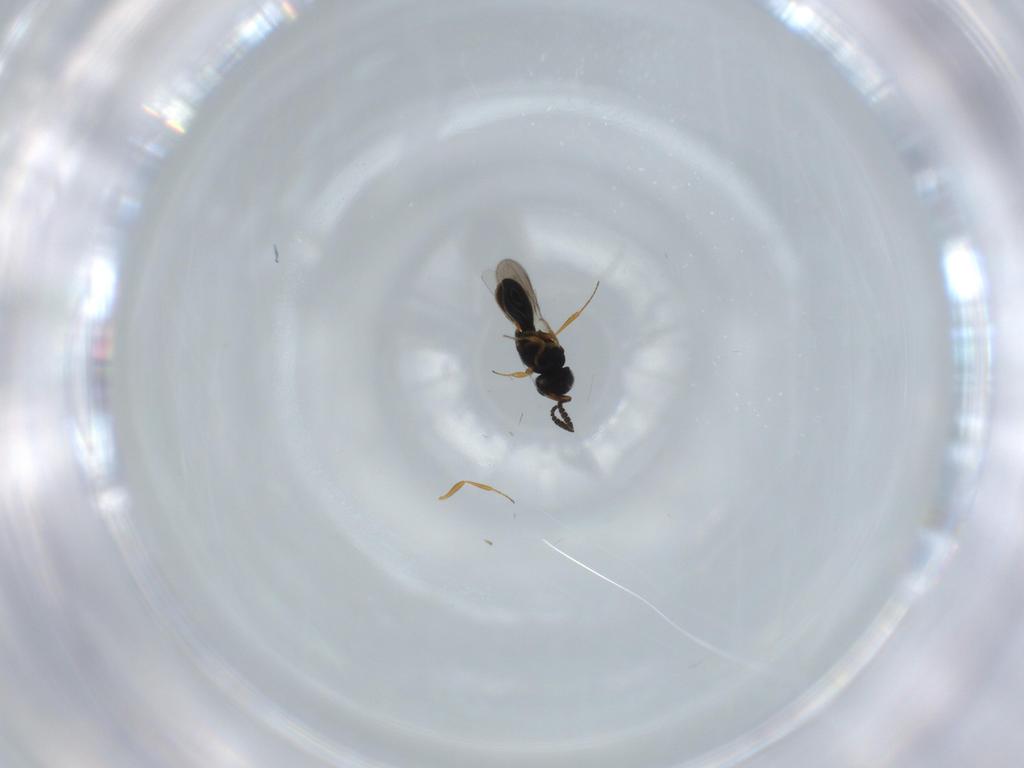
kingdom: Animalia
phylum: Arthropoda
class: Insecta
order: Hymenoptera
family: Scelionidae
